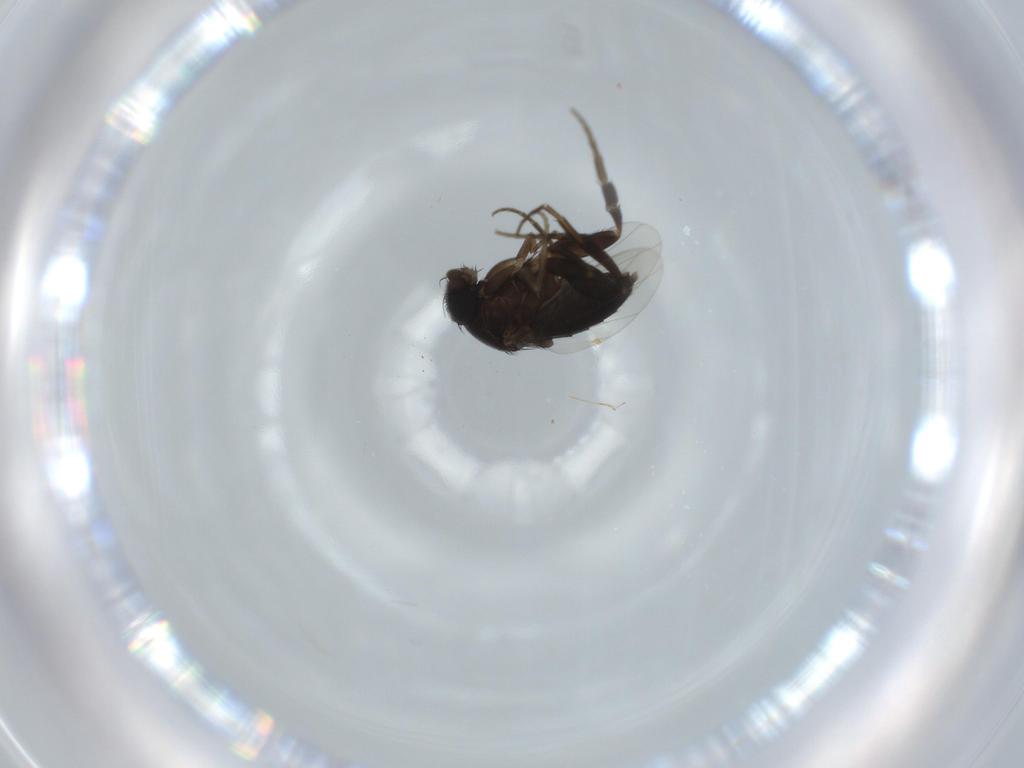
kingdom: Animalia
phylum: Arthropoda
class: Insecta
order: Diptera
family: Phoridae
